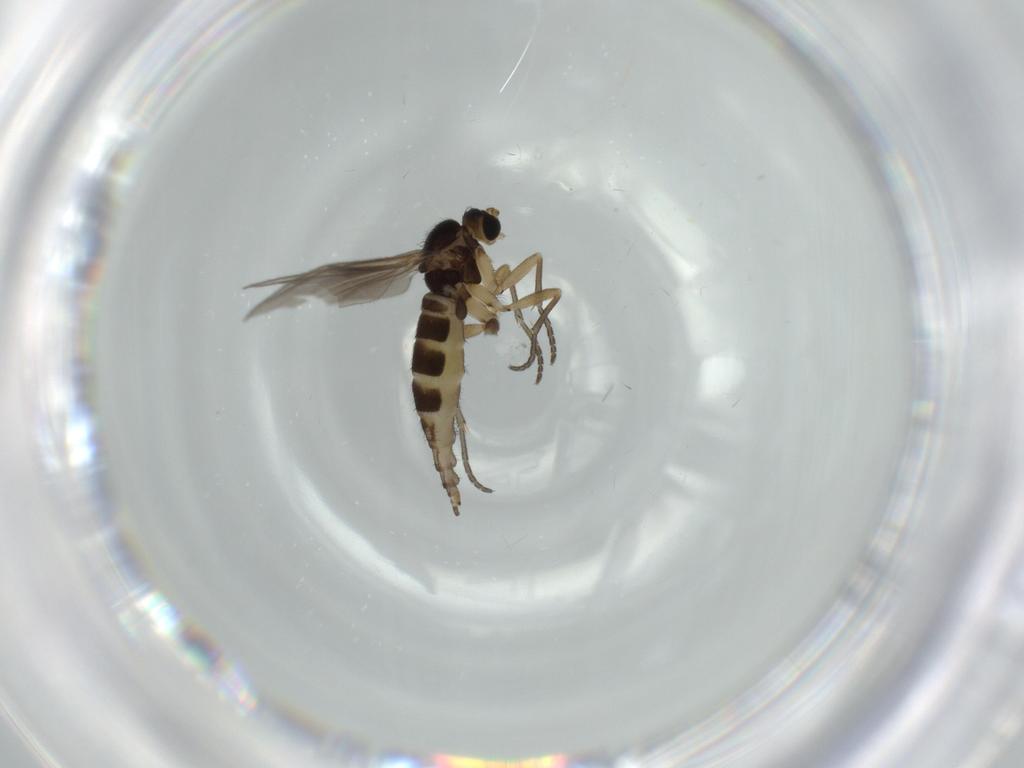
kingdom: Animalia
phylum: Arthropoda
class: Insecta
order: Diptera
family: Sciaridae
